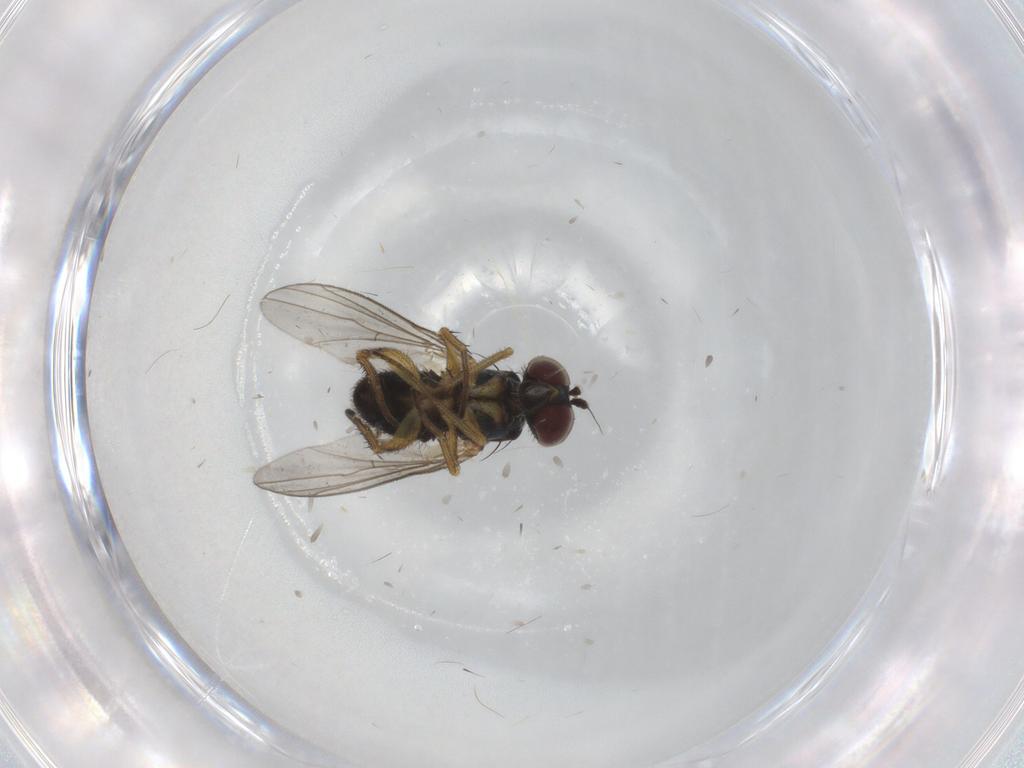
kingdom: Animalia
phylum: Arthropoda
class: Insecta
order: Diptera
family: Dolichopodidae
